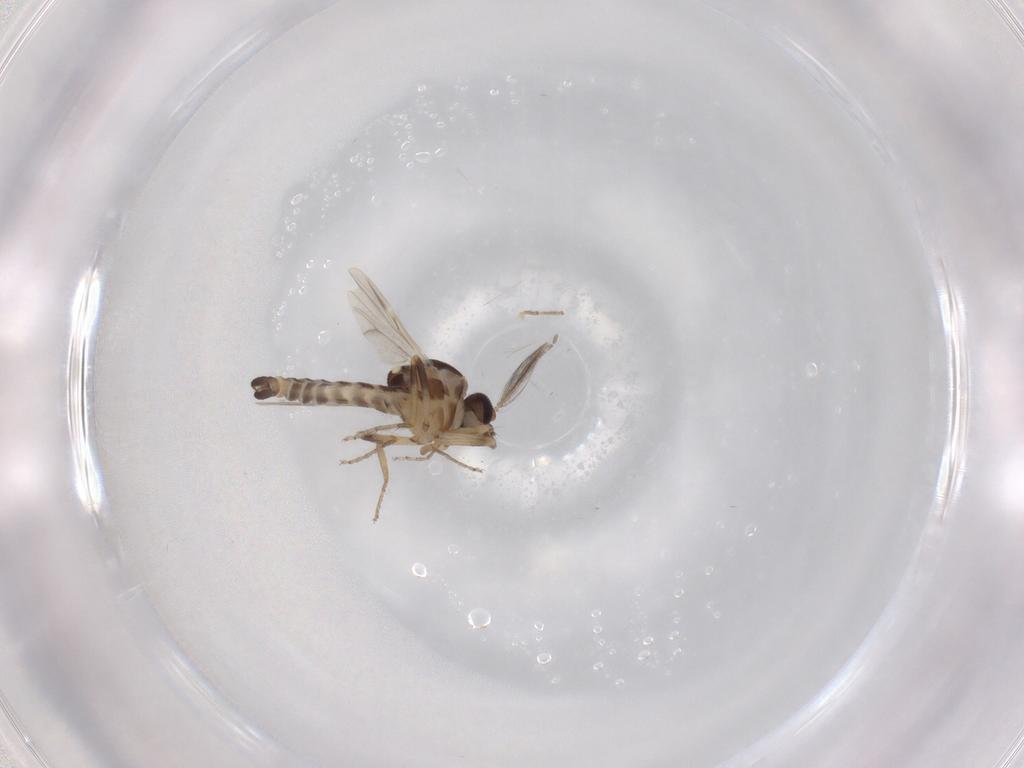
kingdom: Animalia
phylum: Arthropoda
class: Insecta
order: Diptera
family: Ceratopogonidae
